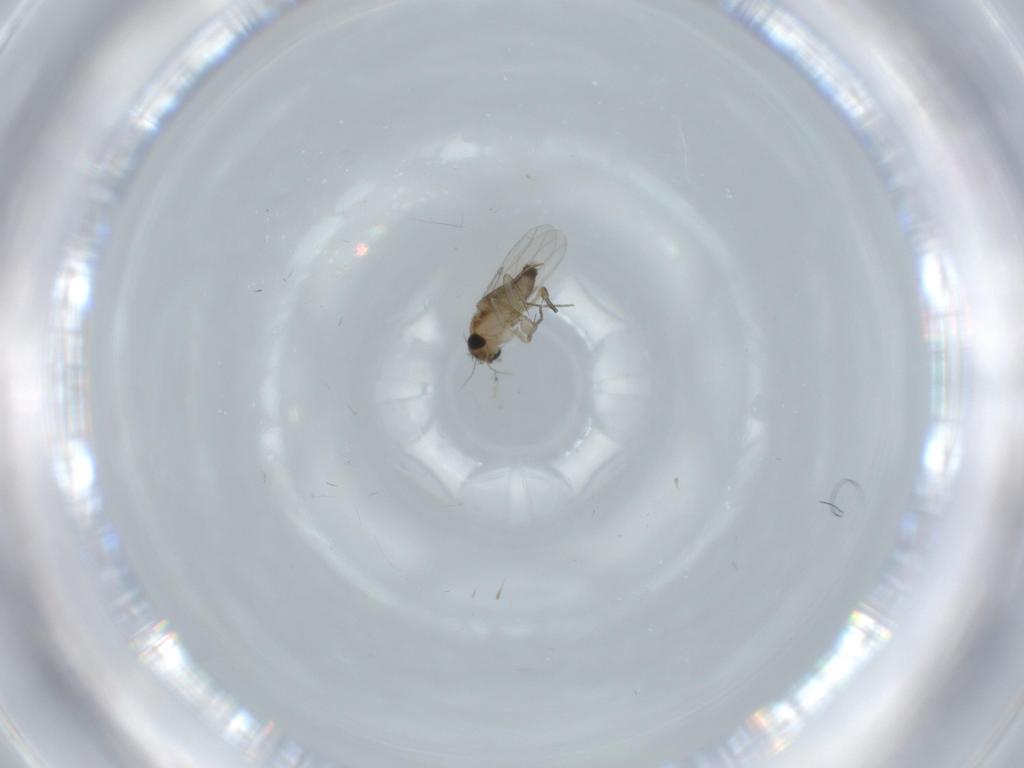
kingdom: Animalia
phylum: Arthropoda
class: Insecta
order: Diptera
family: Phoridae
